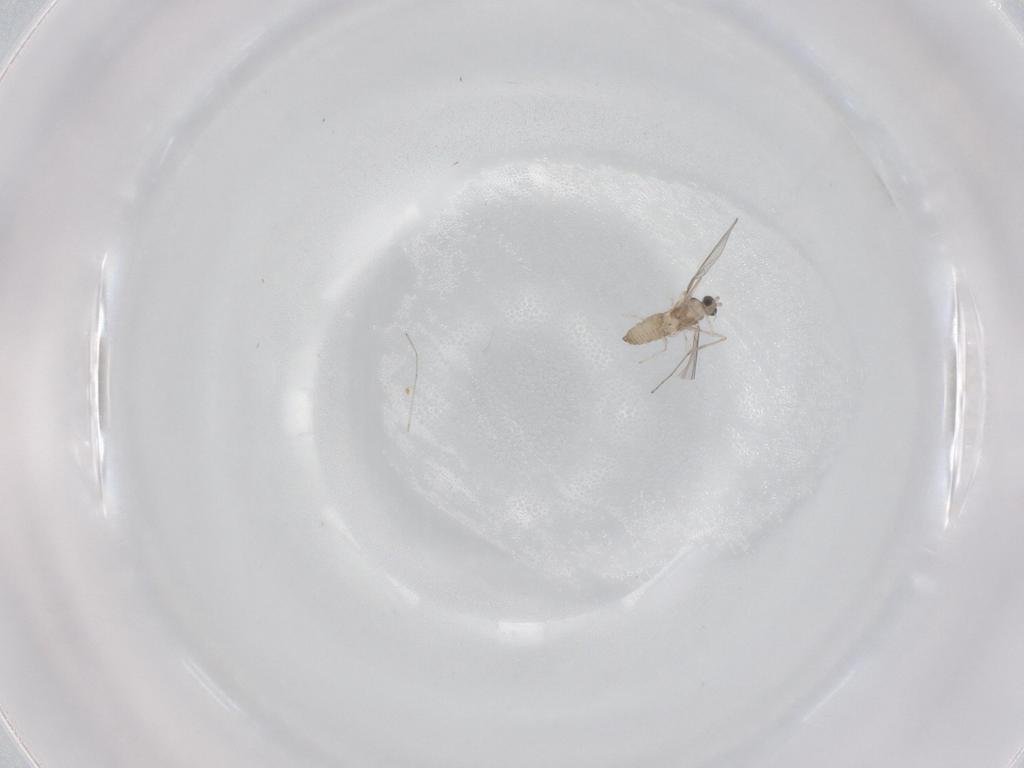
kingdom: Animalia
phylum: Arthropoda
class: Insecta
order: Diptera
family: Cecidomyiidae
